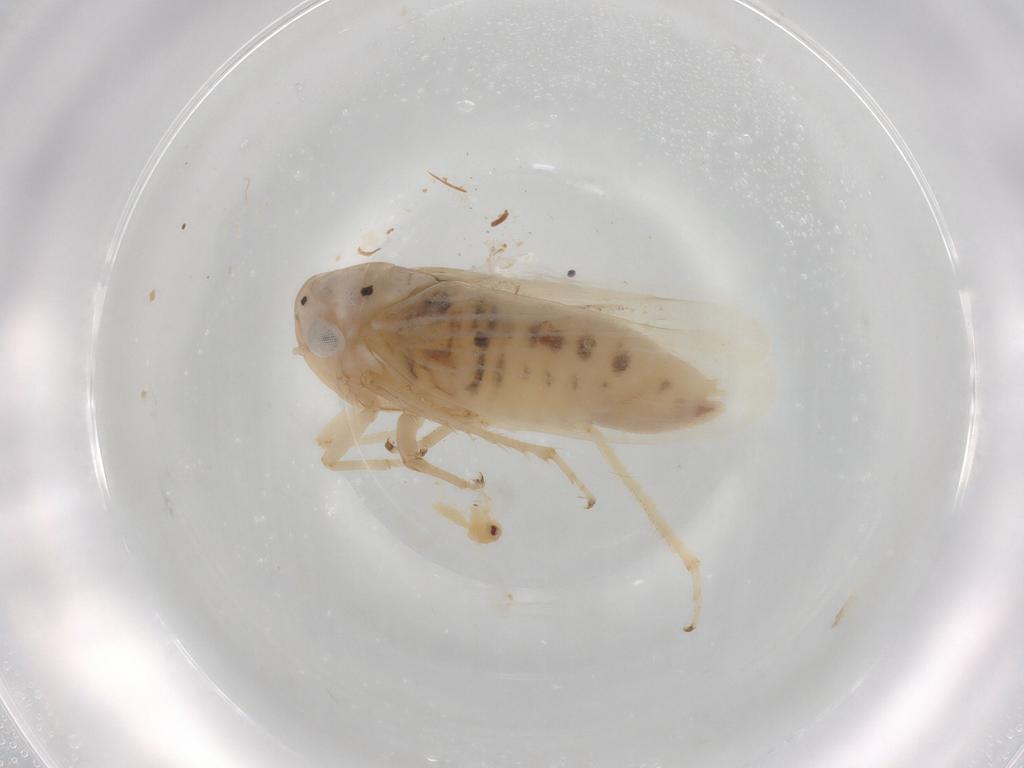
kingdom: Animalia
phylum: Arthropoda
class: Insecta
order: Hemiptera
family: Cicadellidae
